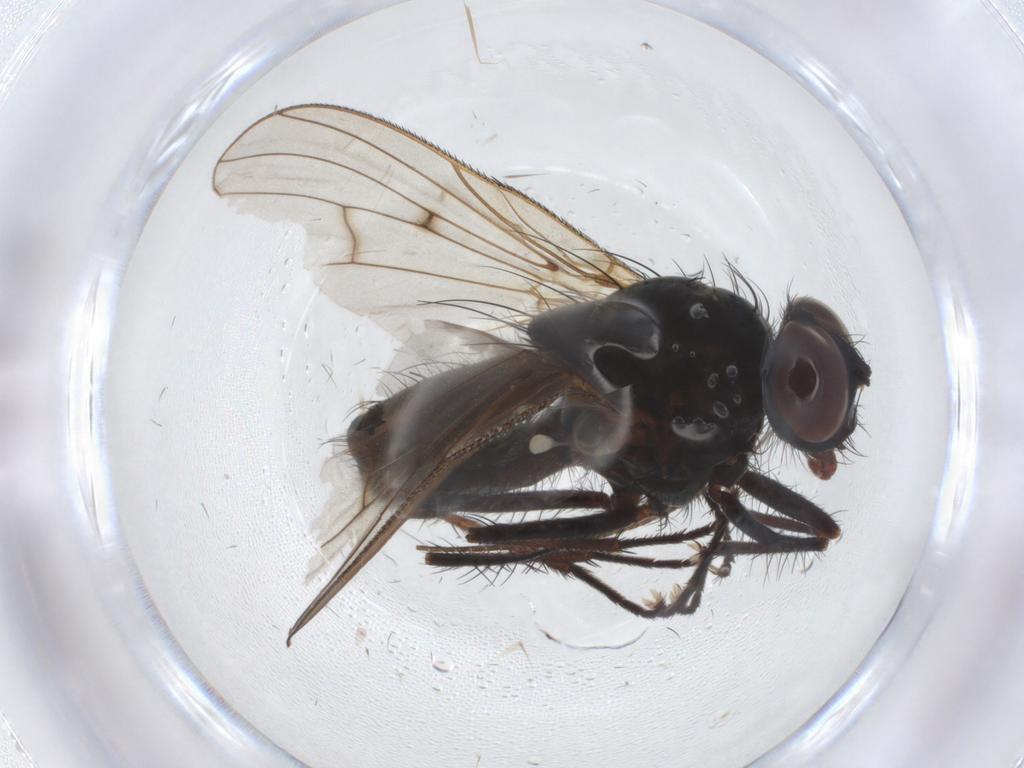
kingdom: Animalia
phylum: Arthropoda
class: Insecta
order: Diptera
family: Anthomyiidae
